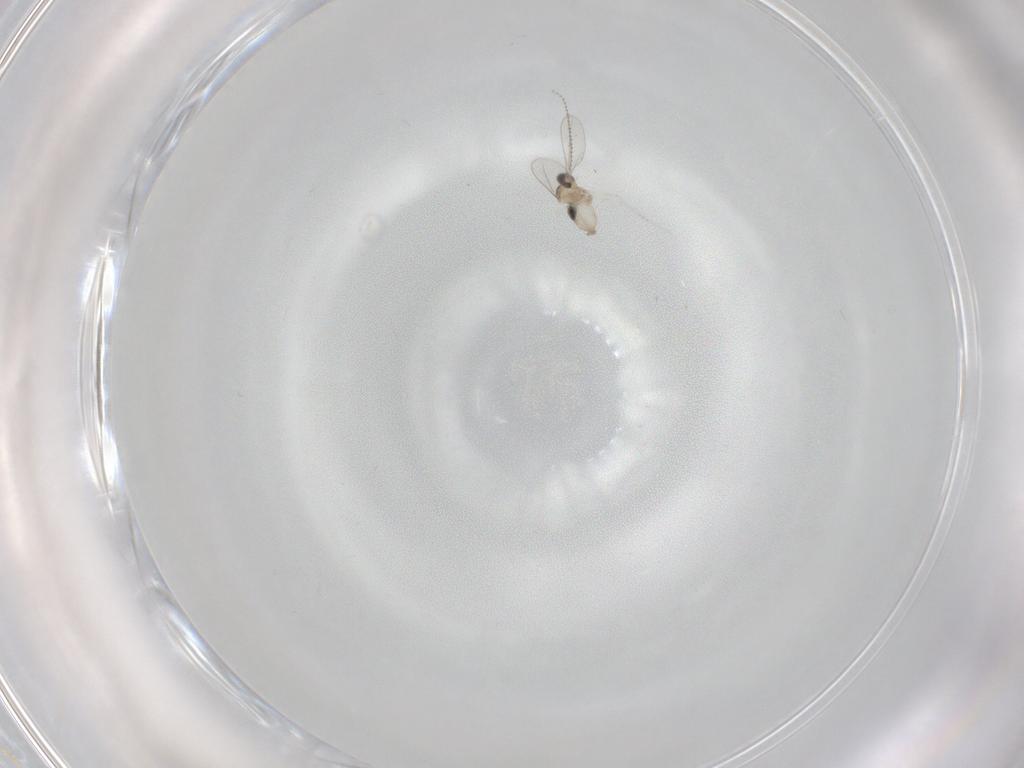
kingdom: Animalia
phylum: Arthropoda
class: Insecta
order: Diptera
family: Cecidomyiidae
